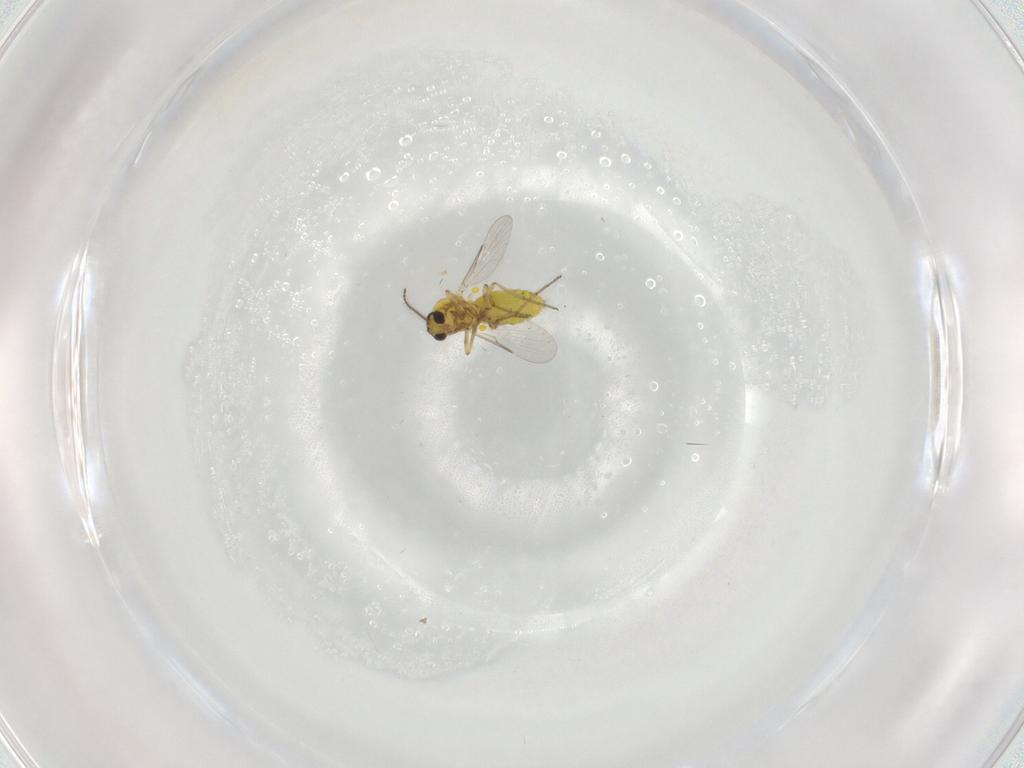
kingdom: Animalia
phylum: Arthropoda
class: Insecta
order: Diptera
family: Cecidomyiidae
